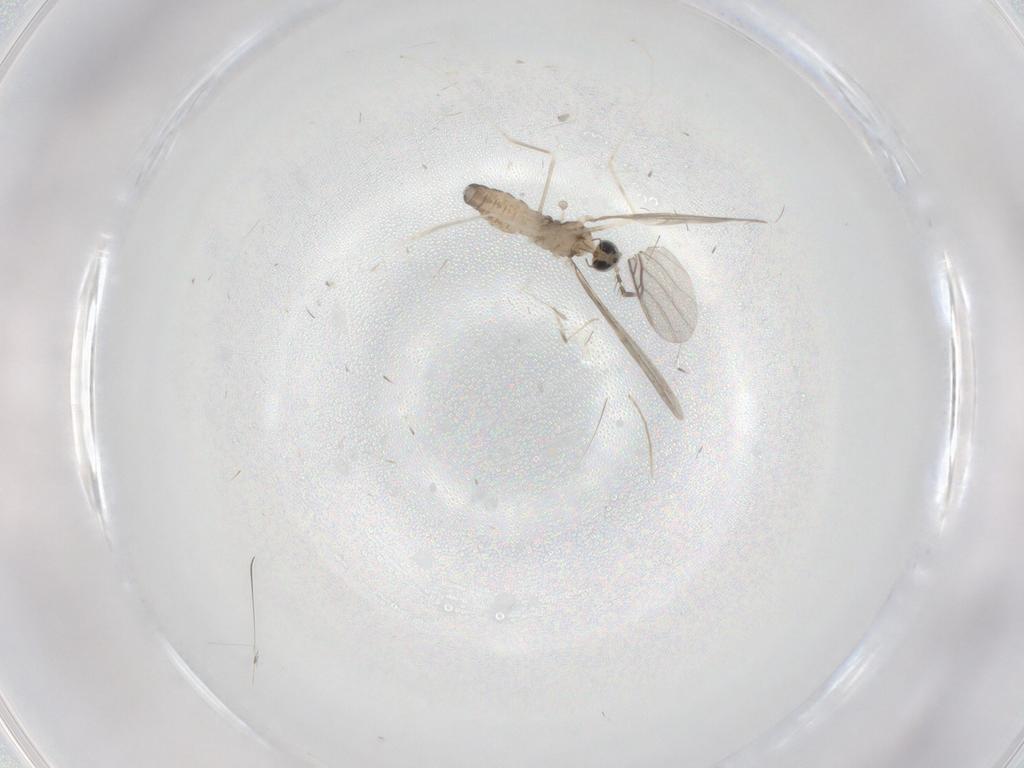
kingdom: Animalia
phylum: Arthropoda
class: Insecta
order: Diptera
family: Cecidomyiidae
